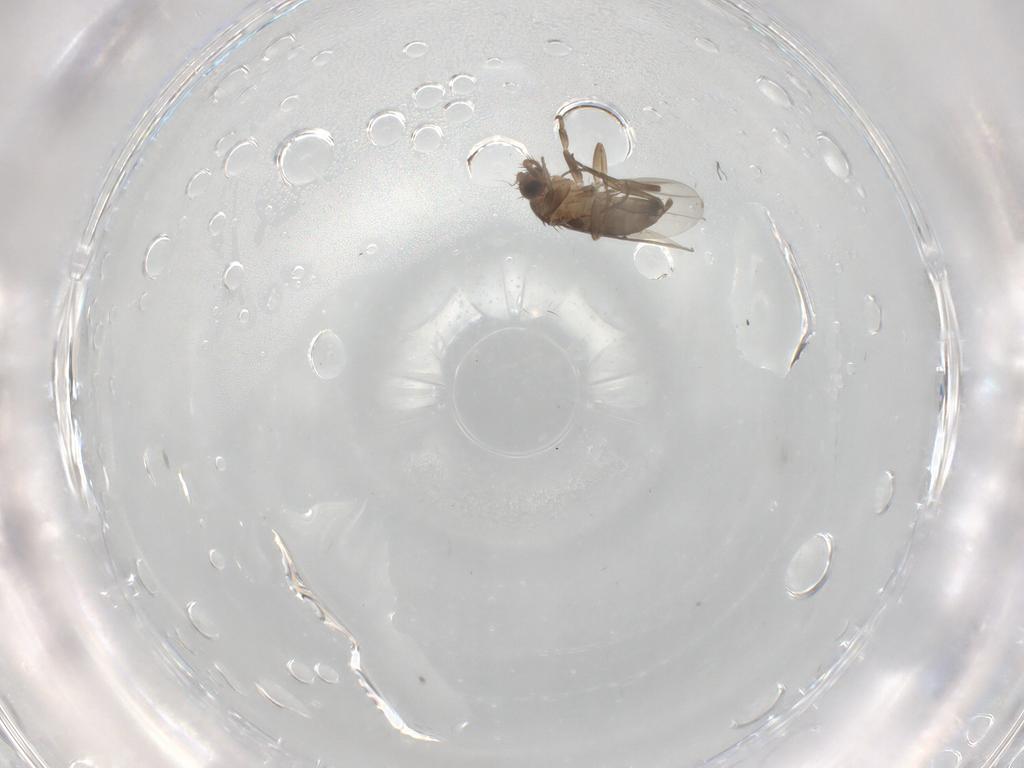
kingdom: Animalia
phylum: Arthropoda
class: Insecta
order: Diptera
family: Phoridae
